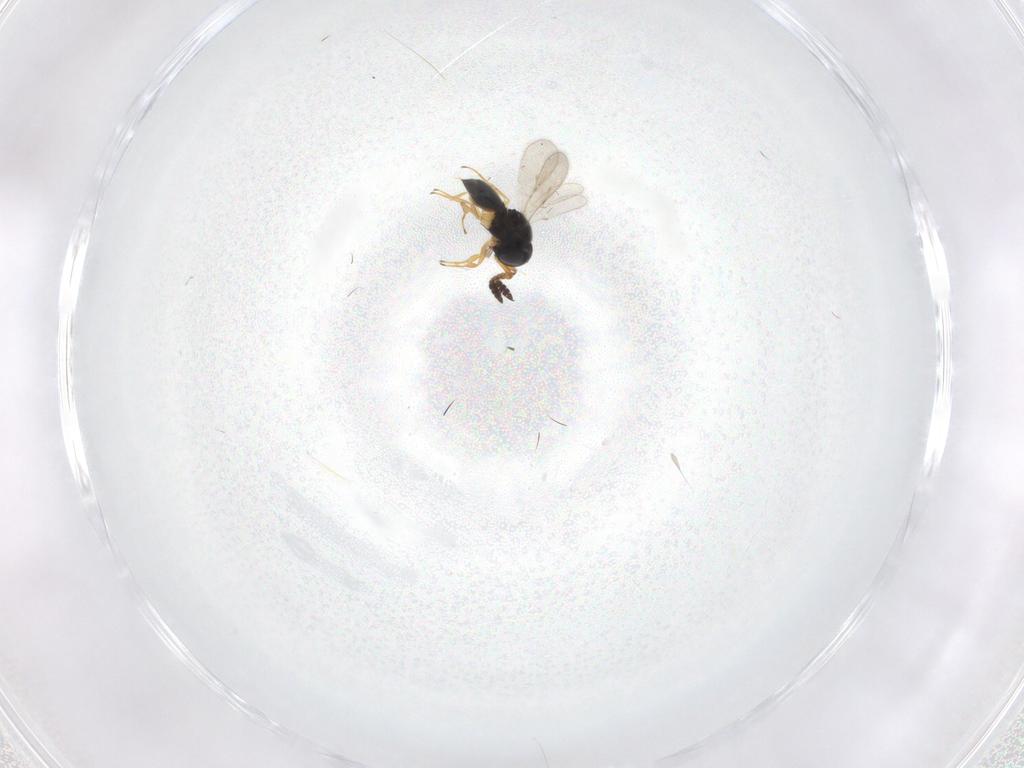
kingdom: Animalia
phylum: Arthropoda
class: Insecta
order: Hymenoptera
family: Scelionidae
